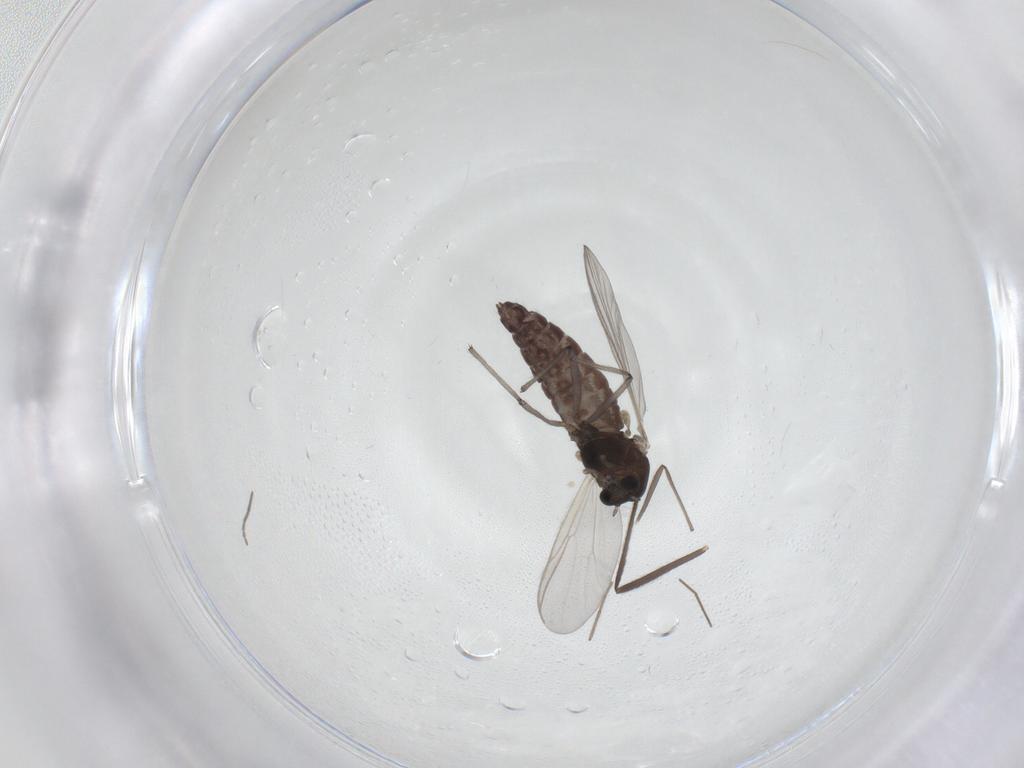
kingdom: Animalia
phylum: Arthropoda
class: Insecta
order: Diptera
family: Chironomidae
